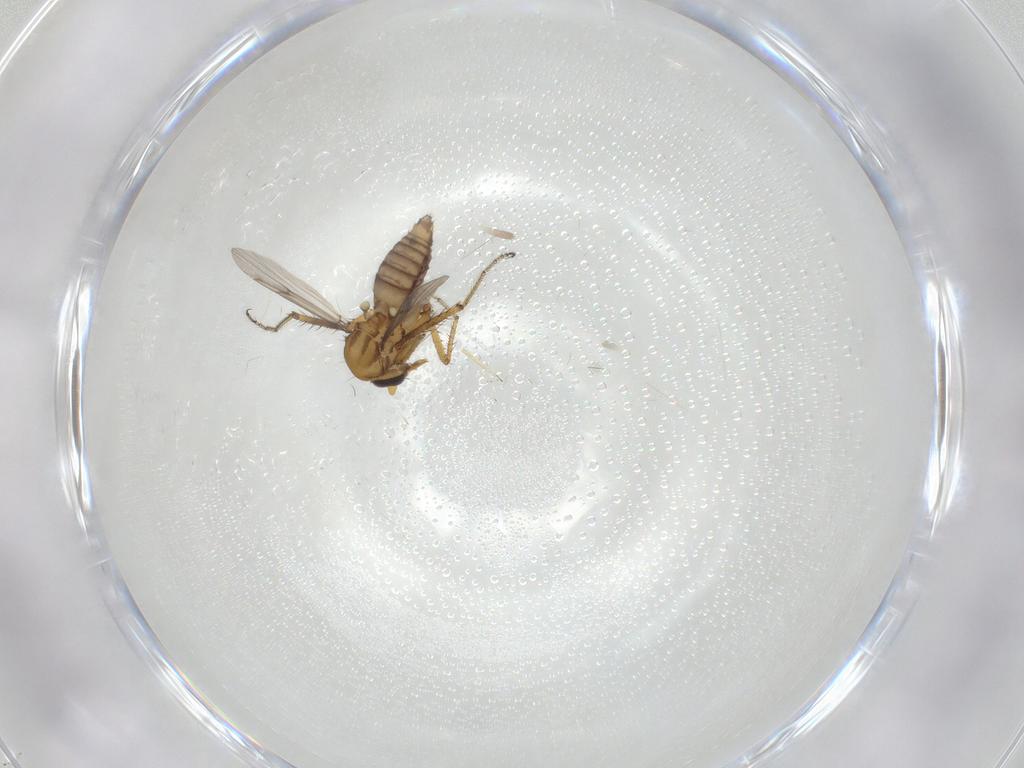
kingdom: Animalia
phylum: Arthropoda
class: Insecta
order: Diptera
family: Ceratopogonidae
